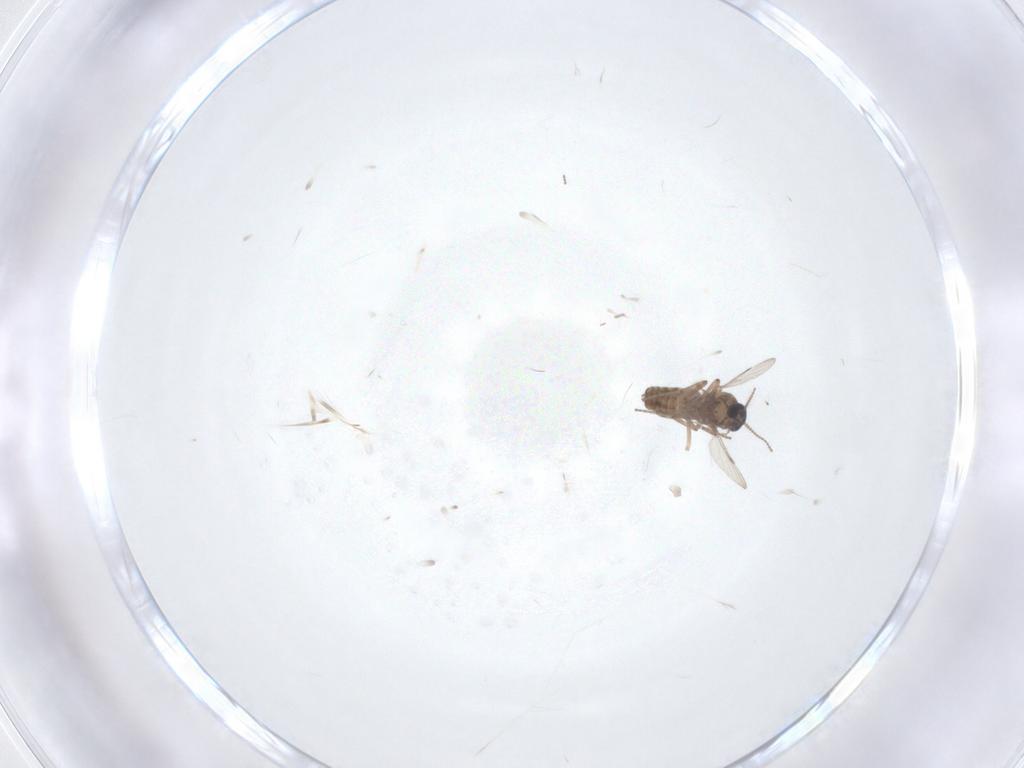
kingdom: Animalia
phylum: Arthropoda
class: Insecta
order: Diptera
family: Ceratopogonidae
